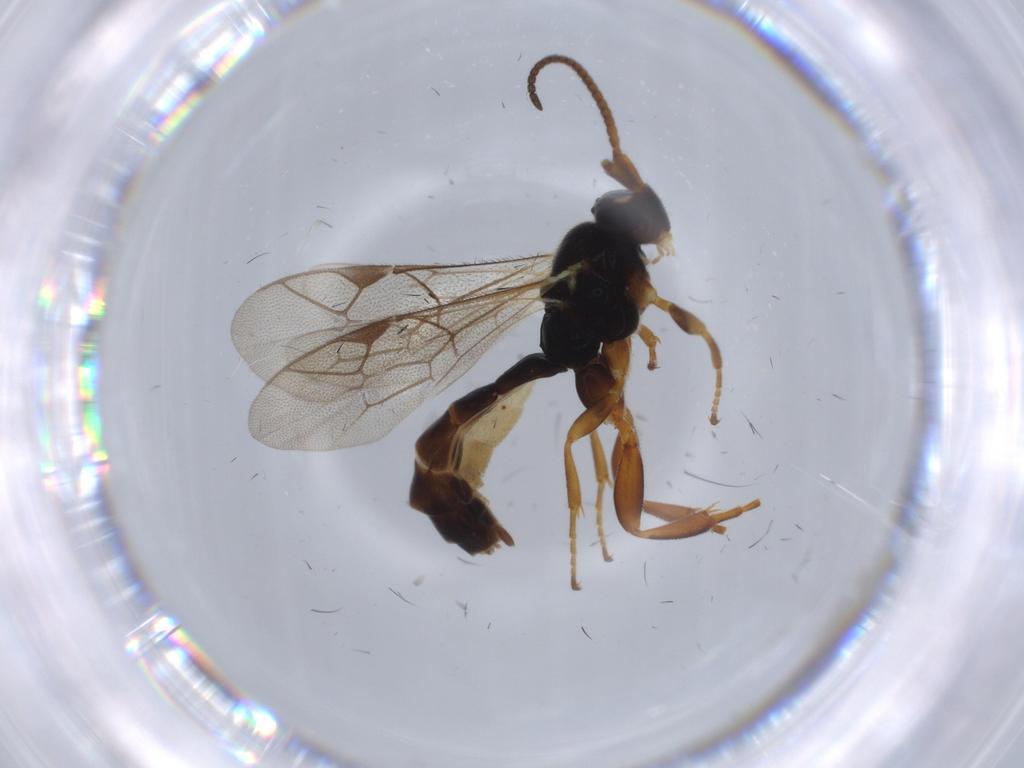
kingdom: Animalia
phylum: Arthropoda
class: Insecta
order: Hymenoptera
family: Ichneumonidae
